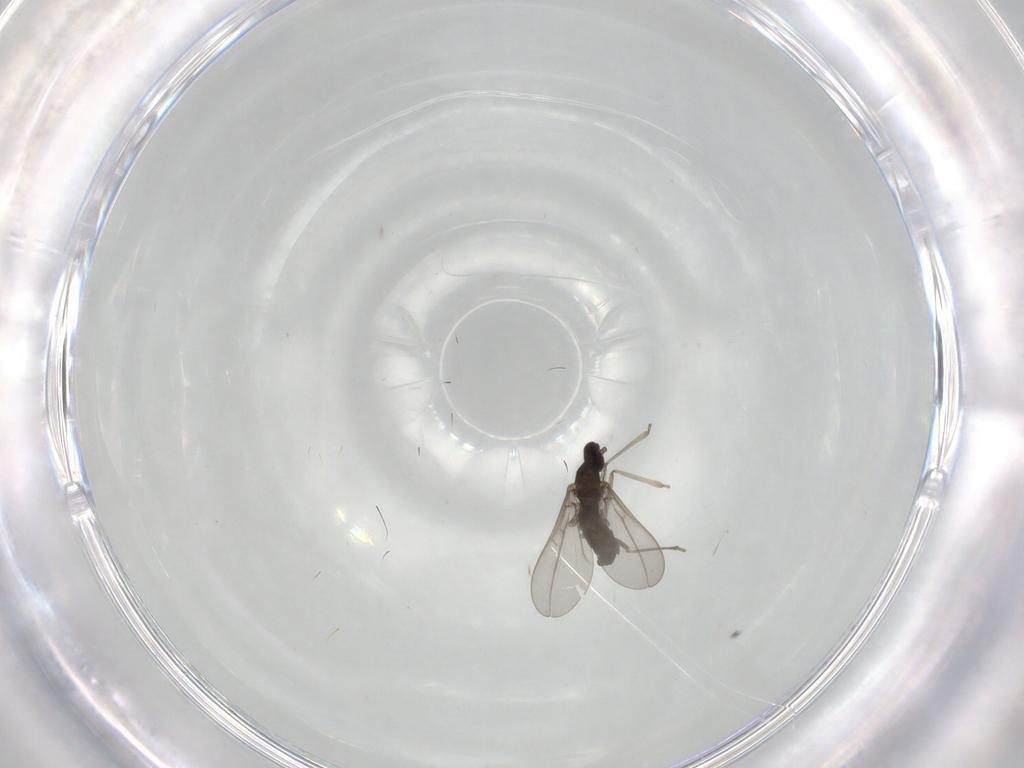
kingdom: Animalia
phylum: Arthropoda
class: Insecta
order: Diptera
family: Cecidomyiidae
